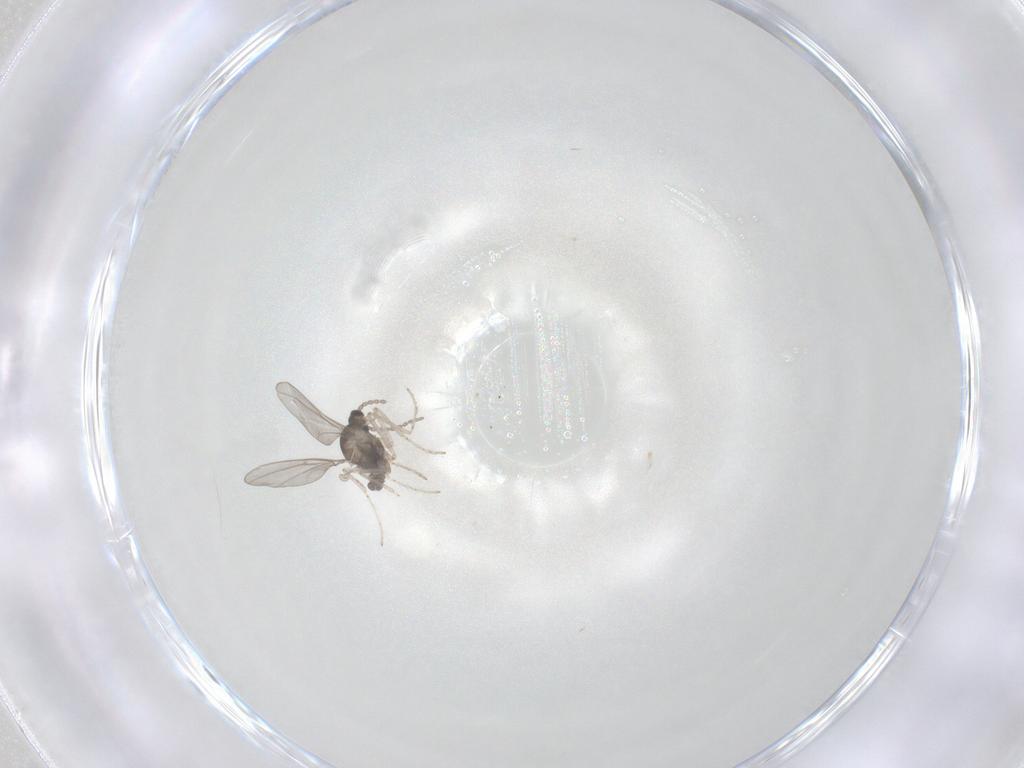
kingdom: Animalia
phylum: Arthropoda
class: Insecta
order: Diptera
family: Cecidomyiidae
